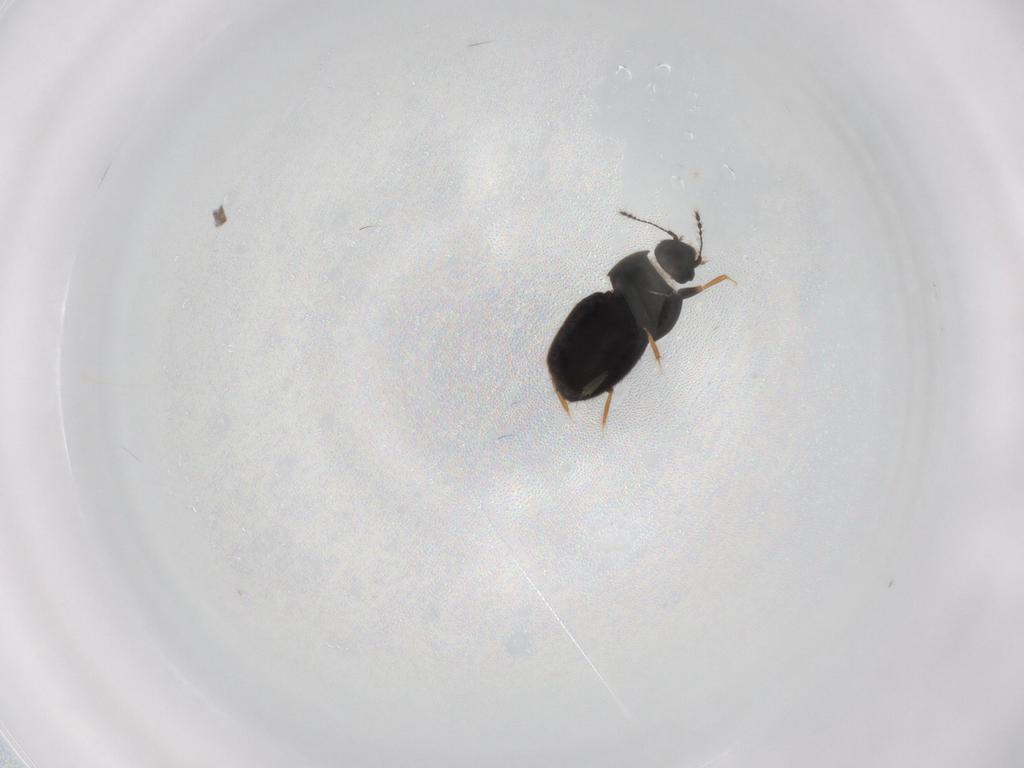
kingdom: Animalia
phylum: Arthropoda
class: Insecta
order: Coleoptera
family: Ptiliidae
